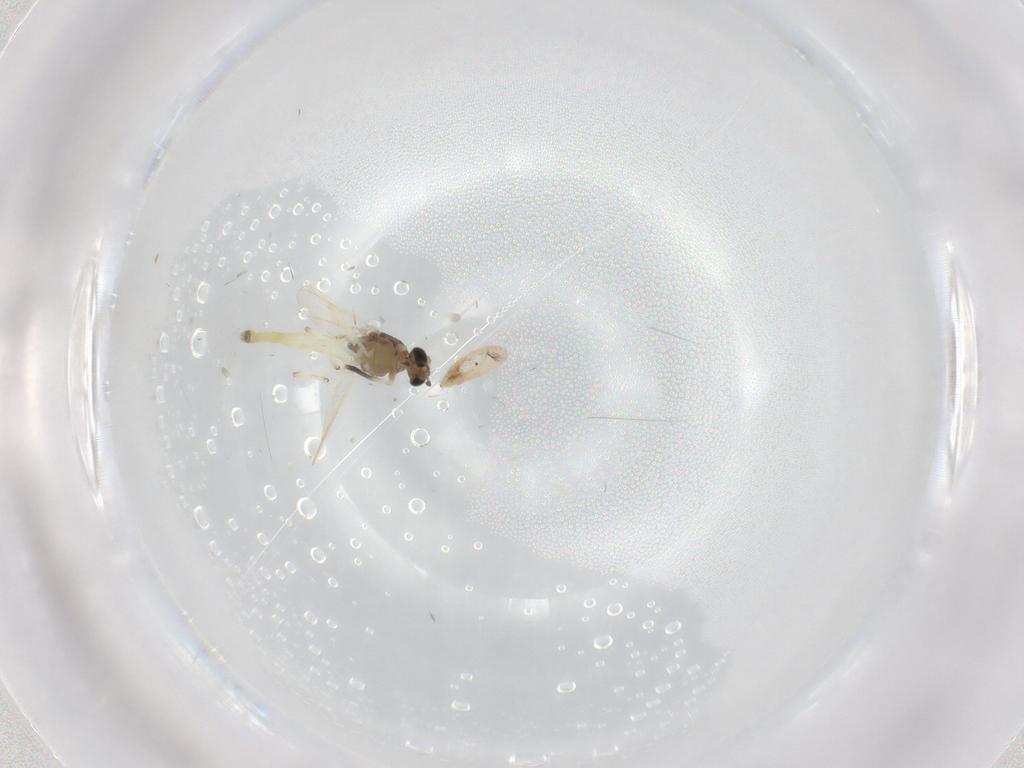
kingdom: Animalia
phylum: Arthropoda
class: Insecta
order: Diptera
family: Chironomidae
